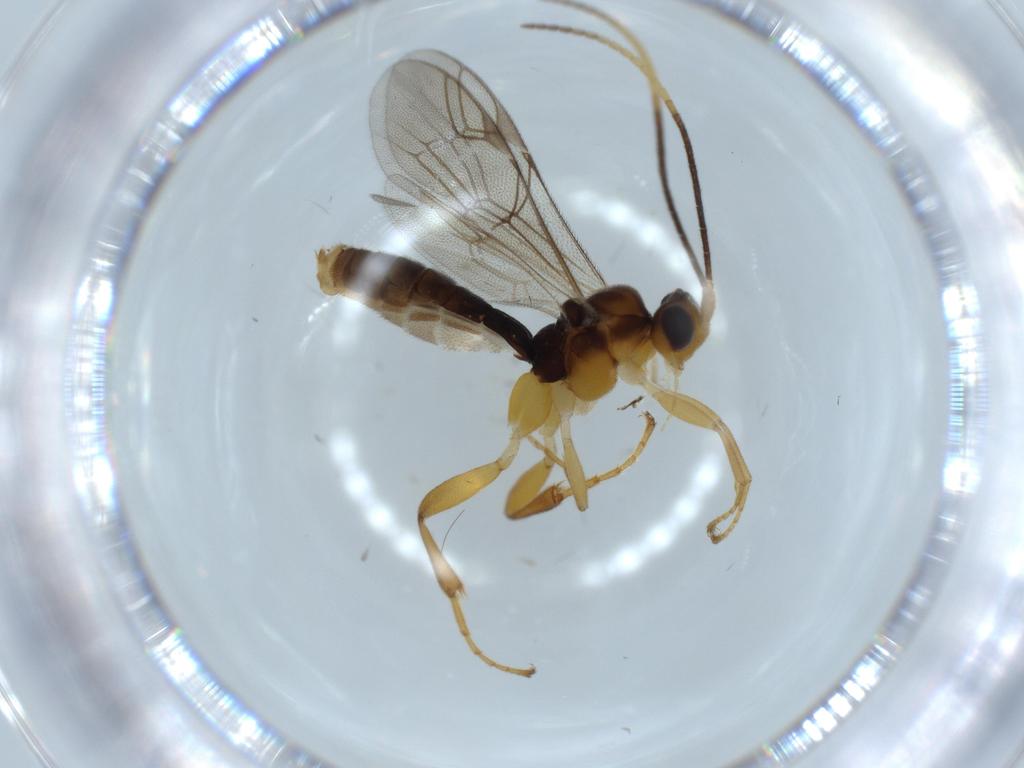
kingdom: Animalia
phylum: Arthropoda
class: Insecta
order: Hymenoptera
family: Diapriidae
